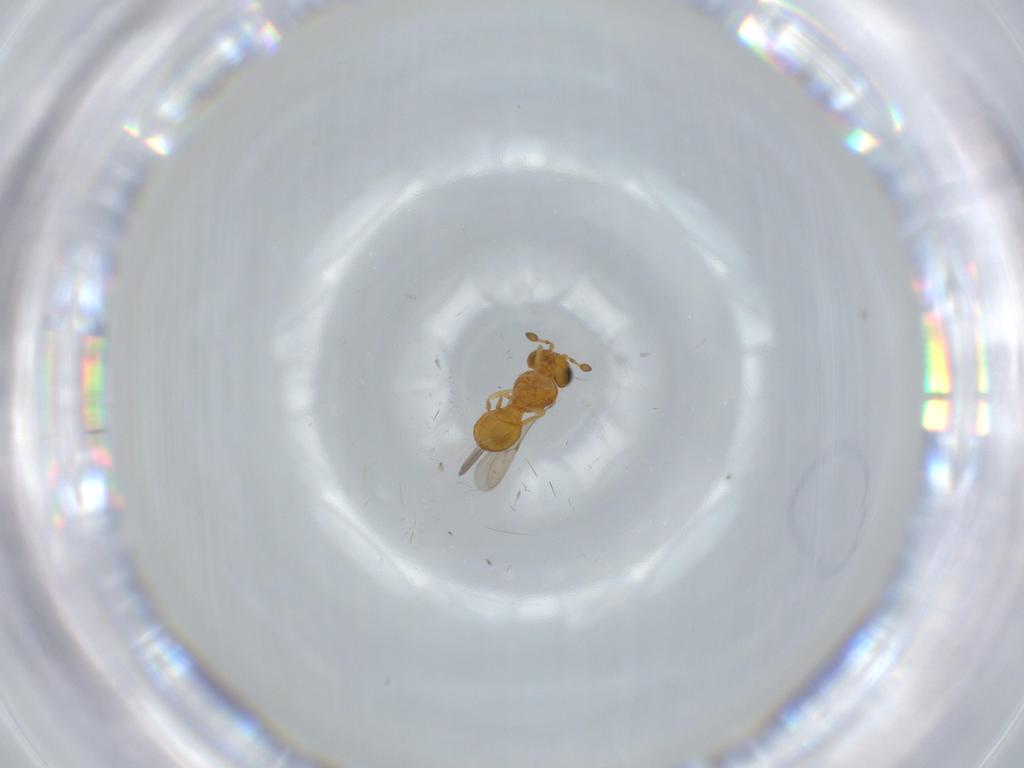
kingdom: Animalia
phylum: Arthropoda
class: Insecta
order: Hymenoptera
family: Scelionidae
